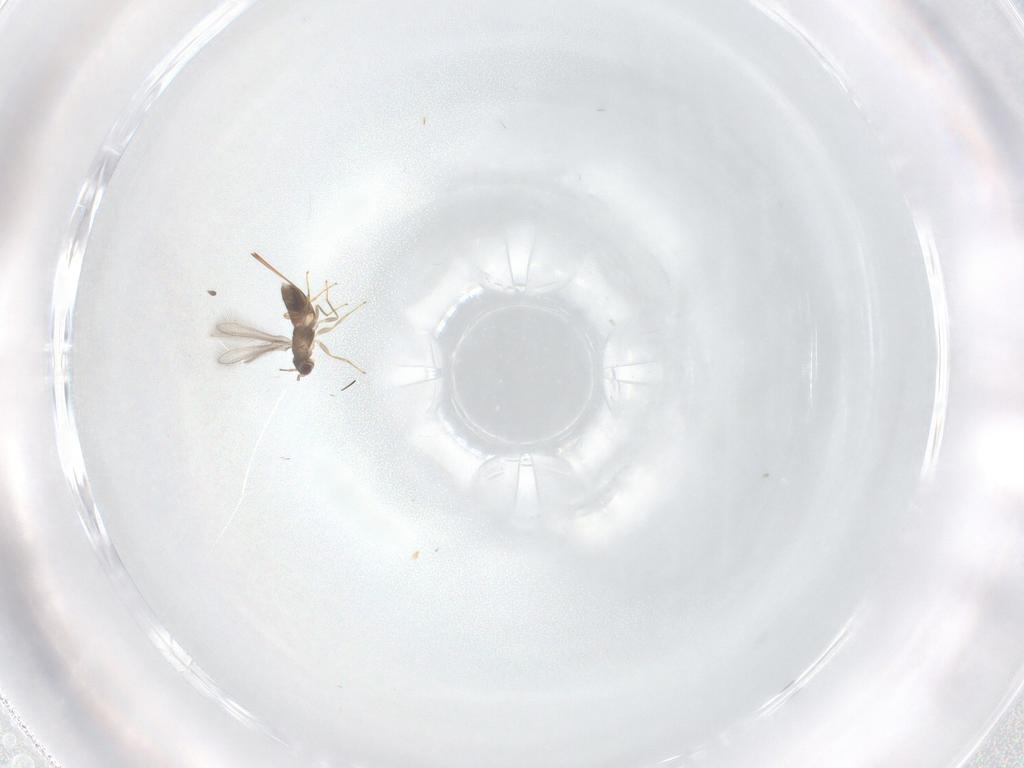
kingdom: Animalia
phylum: Arthropoda
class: Insecta
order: Hymenoptera
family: Mymaridae
